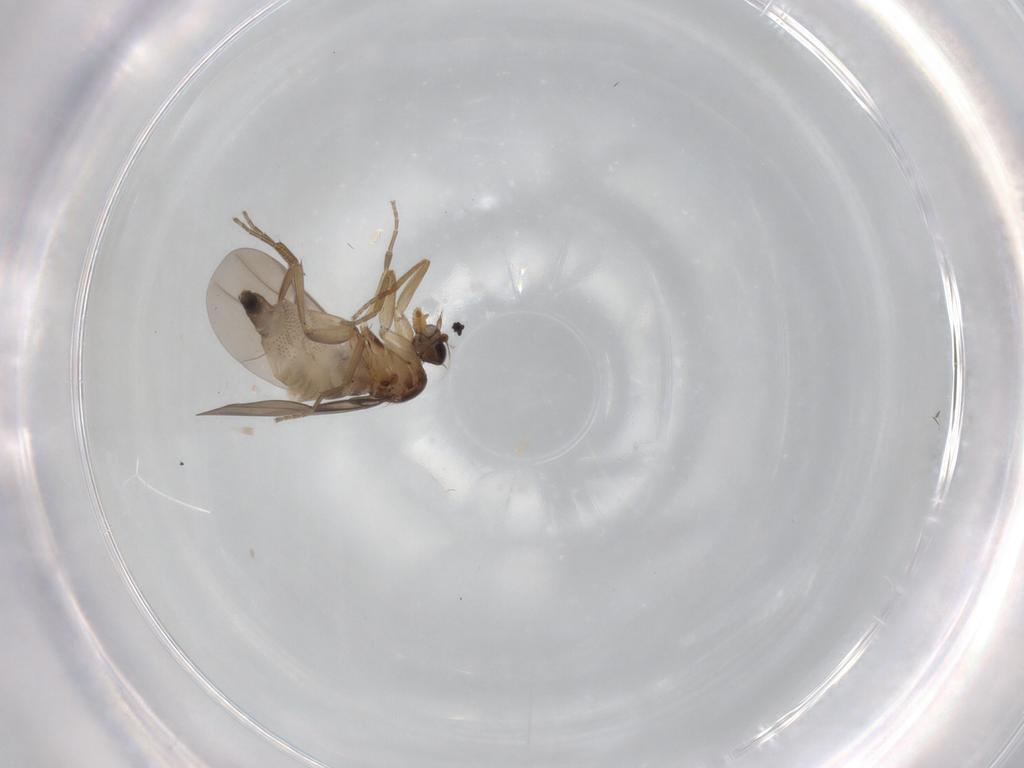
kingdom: Animalia
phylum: Arthropoda
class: Insecta
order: Diptera
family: Phoridae
